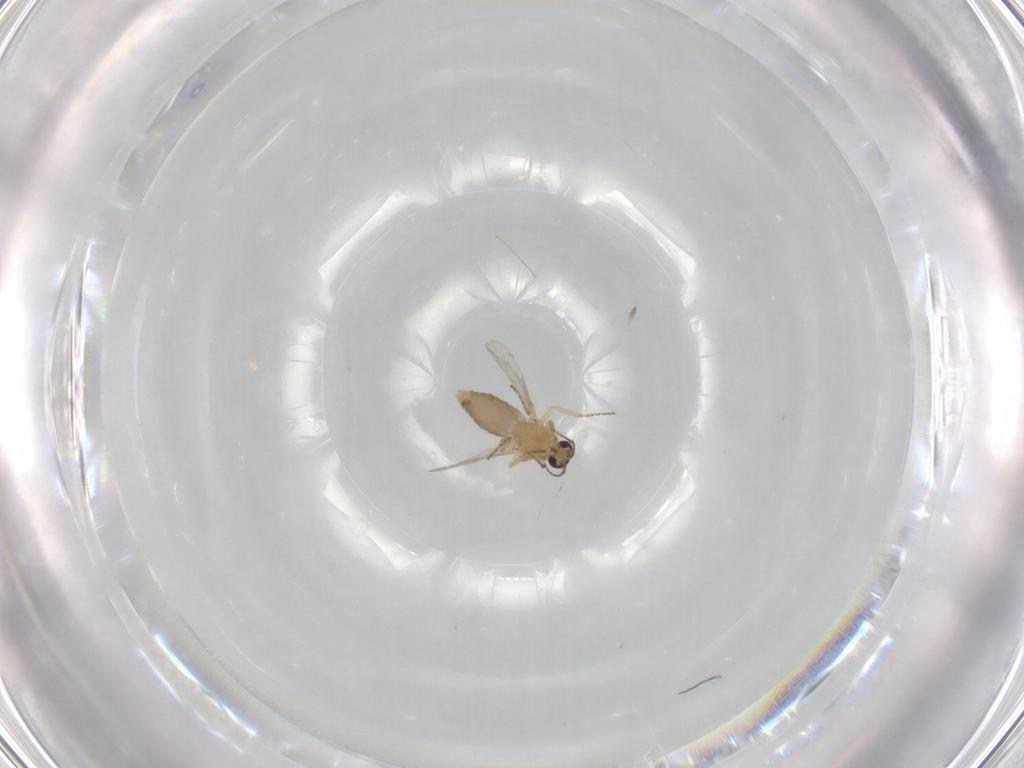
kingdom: Animalia
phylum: Arthropoda
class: Insecta
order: Diptera
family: Ceratopogonidae
